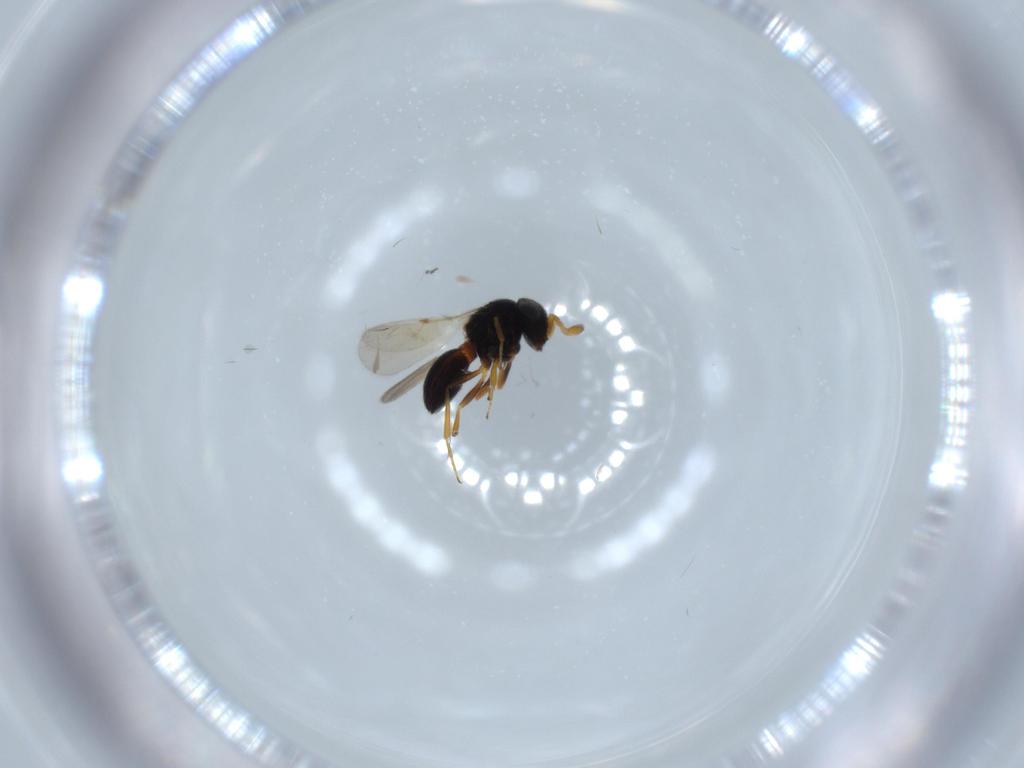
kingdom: Animalia
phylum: Arthropoda
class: Insecta
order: Hymenoptera
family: Scelionidae
